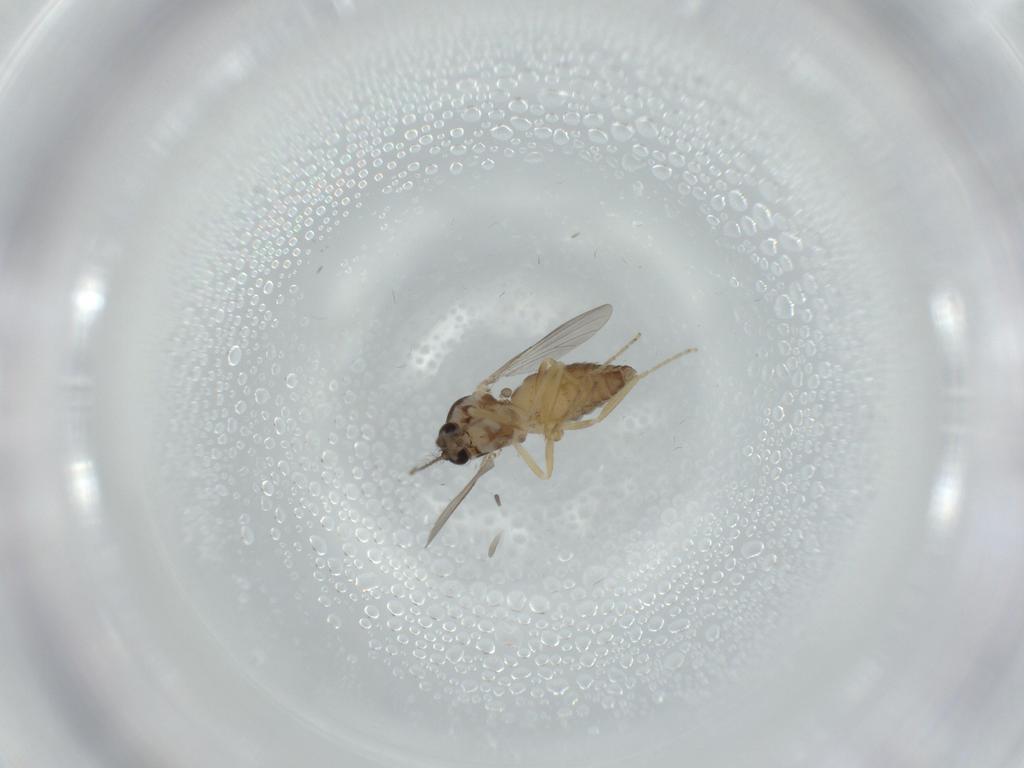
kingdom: Animalia
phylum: Arthropoda
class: Insecta
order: Diptera
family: Ceratopogonidae
